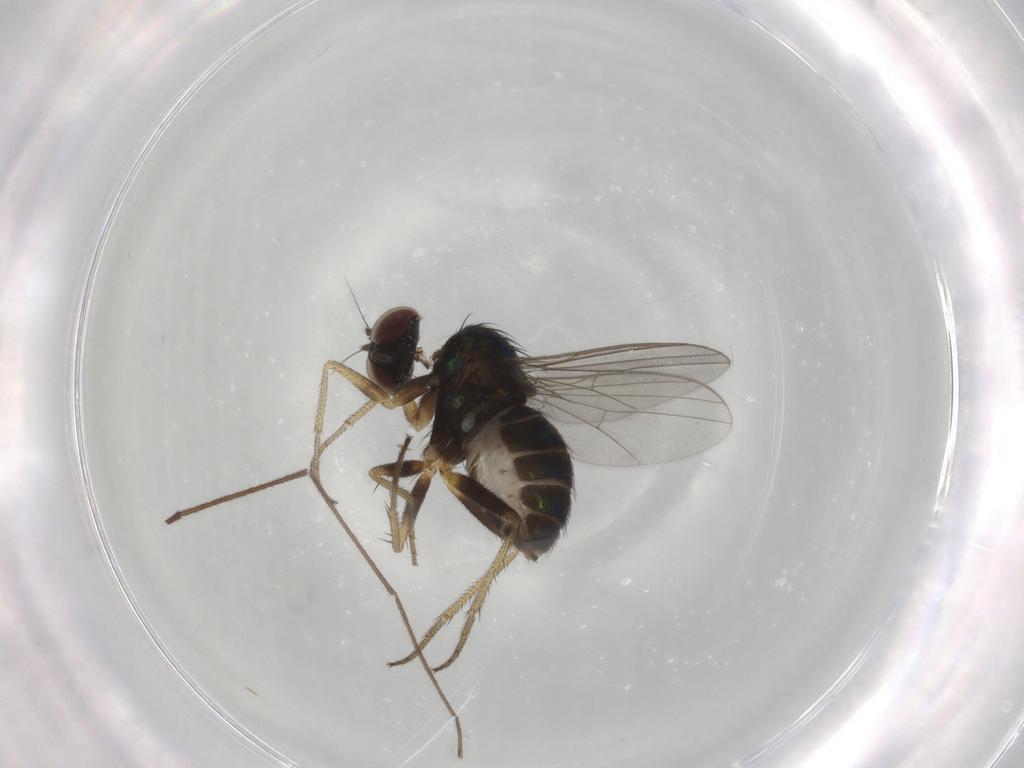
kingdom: Animalia
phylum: Arthropoda
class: Insecta
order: Diptera
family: Chironomidae
